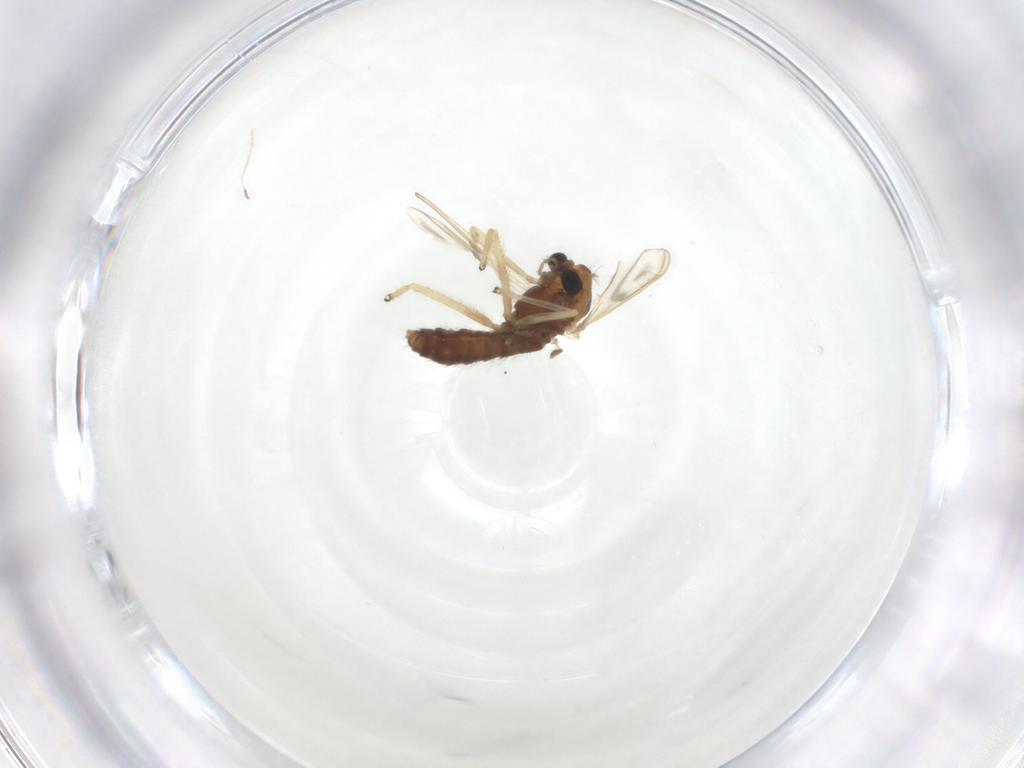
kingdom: Animalia
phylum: Arthropoda
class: Insecta
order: Diptera
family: Chironomidae
